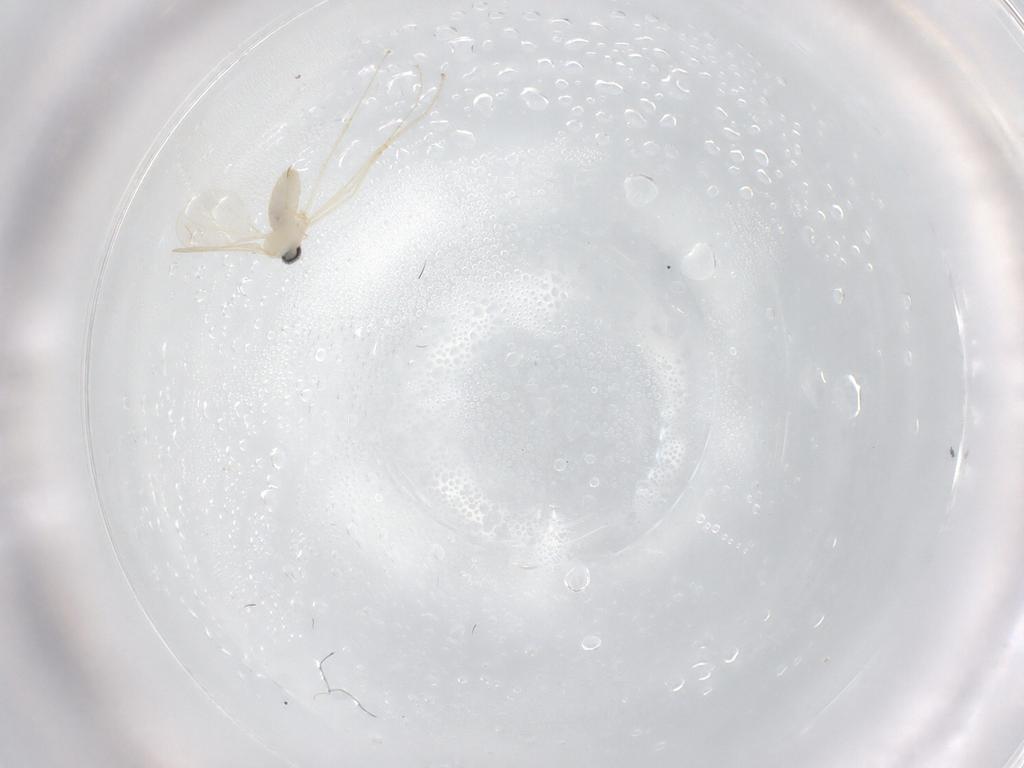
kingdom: Animalia
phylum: Arthropoda
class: Insecta
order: Diptera
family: Cecidomyiidae
